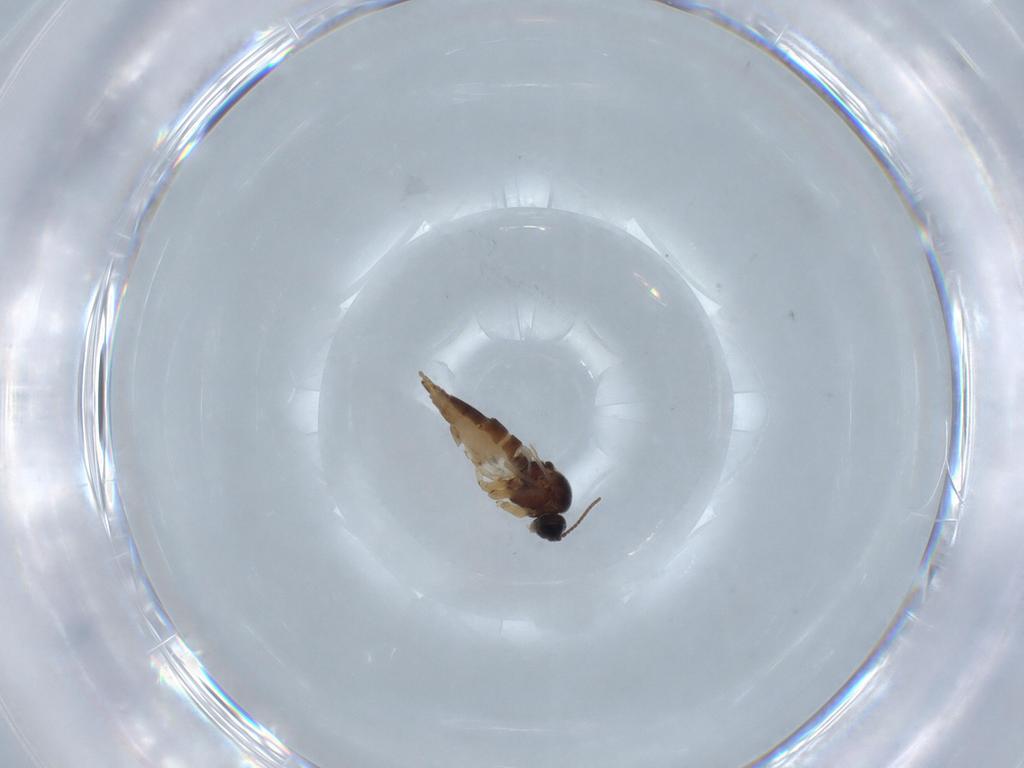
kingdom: Animalia
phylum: Arthropoda
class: Insecta
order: Diptera
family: Sciaridae
